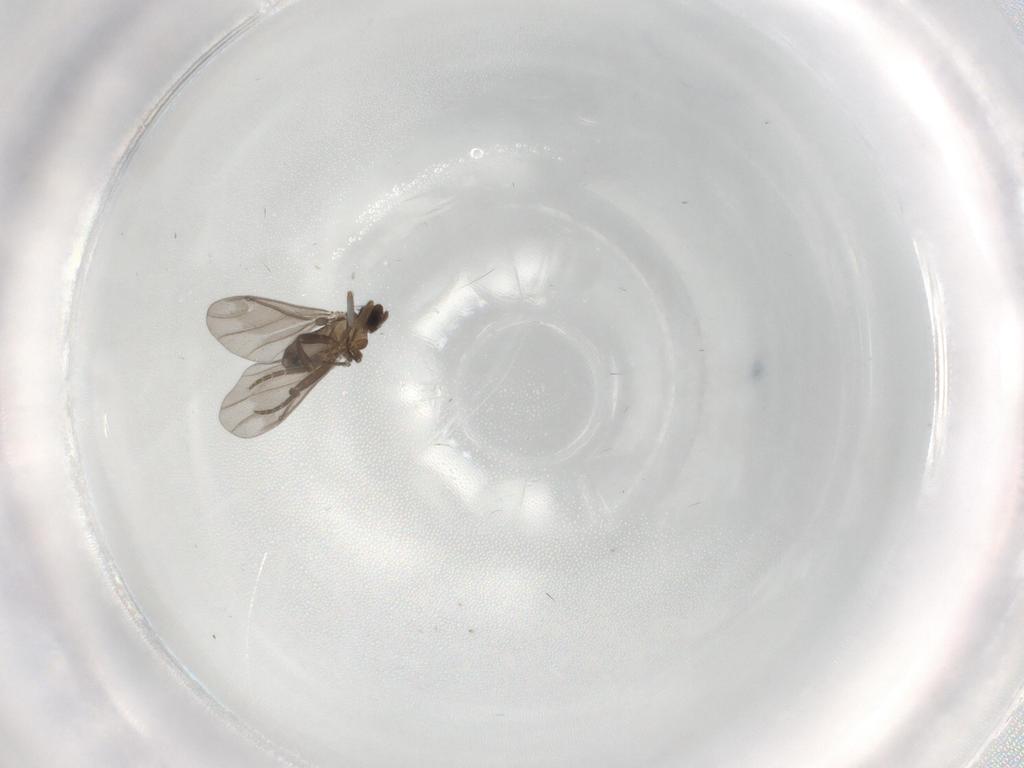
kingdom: Animalia
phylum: Arthropoda
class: Insecta
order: Diptera
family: Phoridae
